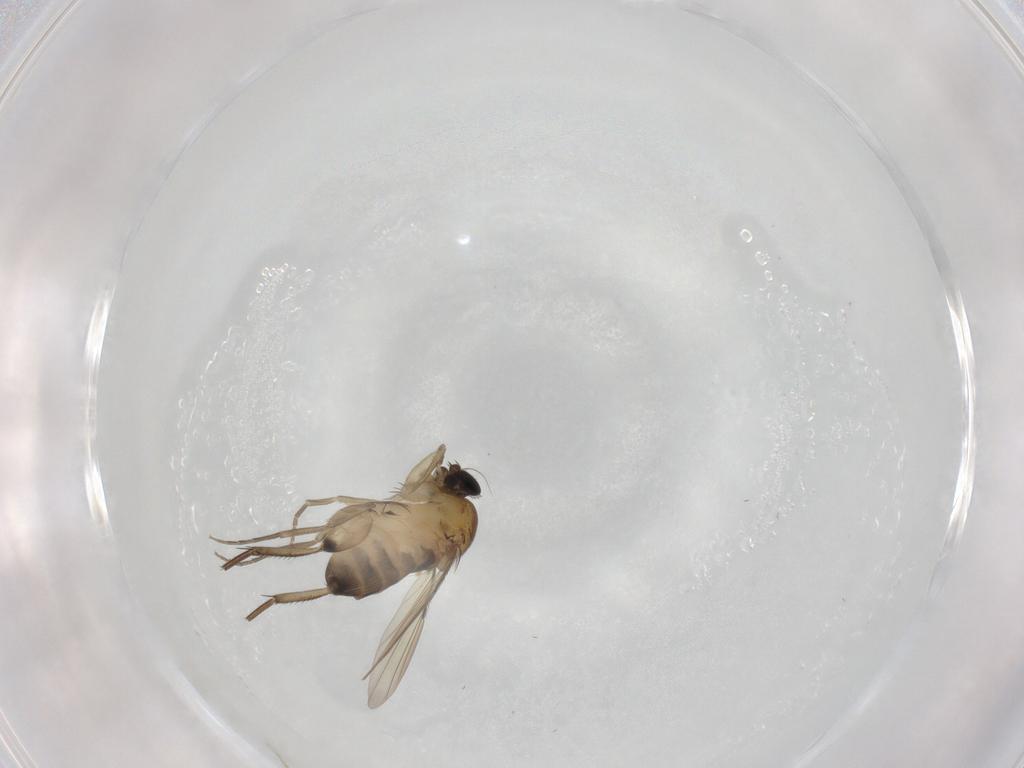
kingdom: Animalia
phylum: Arthropoda
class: Insecta
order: Diptera
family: Phoridae
